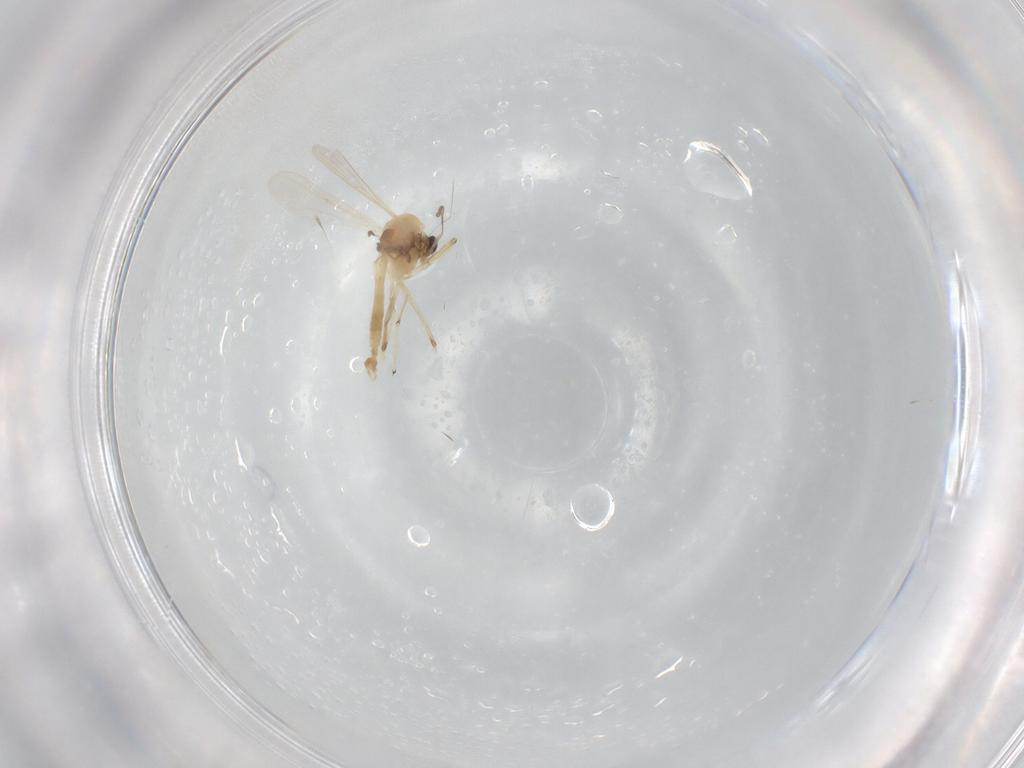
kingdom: Animalia
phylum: Arthropoda
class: Insecta
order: Diptera
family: Chironomidae
